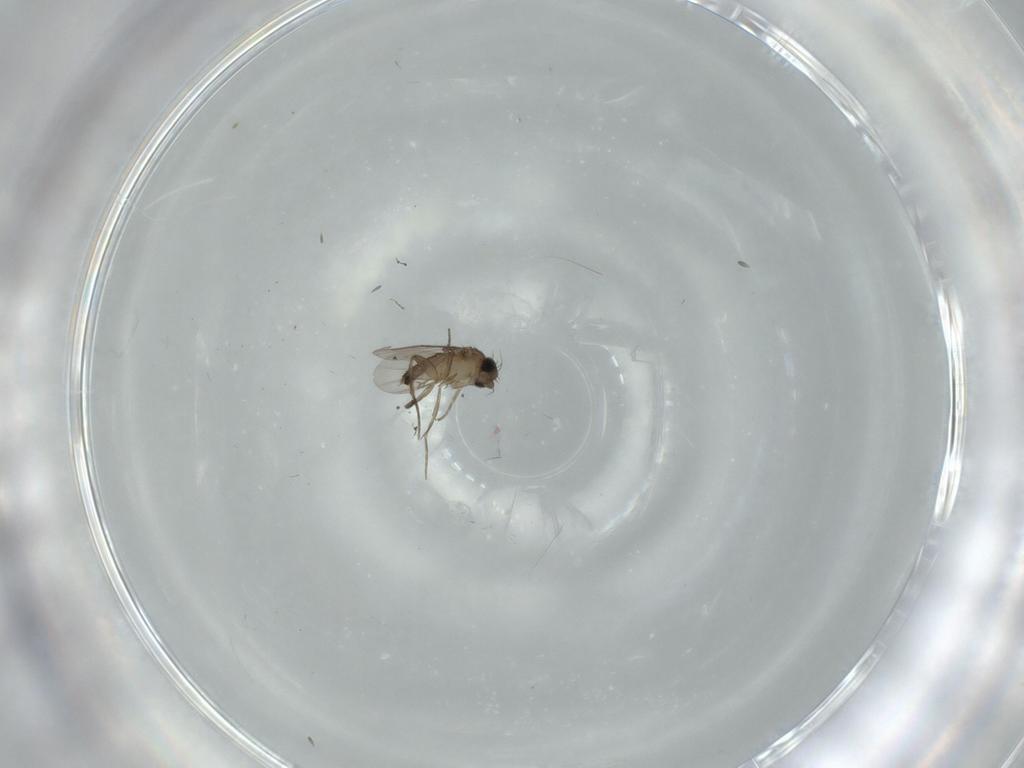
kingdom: Animalia
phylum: Arthropoda
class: Insecta
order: Diptera
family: Phoridae
